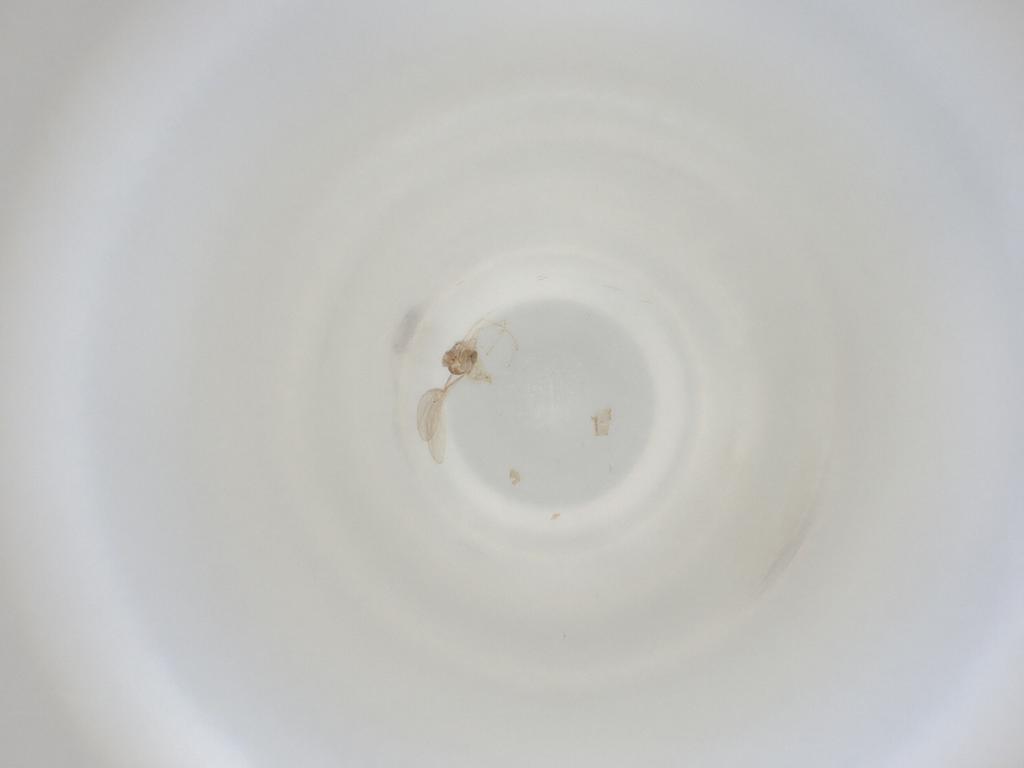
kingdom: Animalia
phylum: Arthropoda
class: Insecta
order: Diptera
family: Cecidomyiidae
